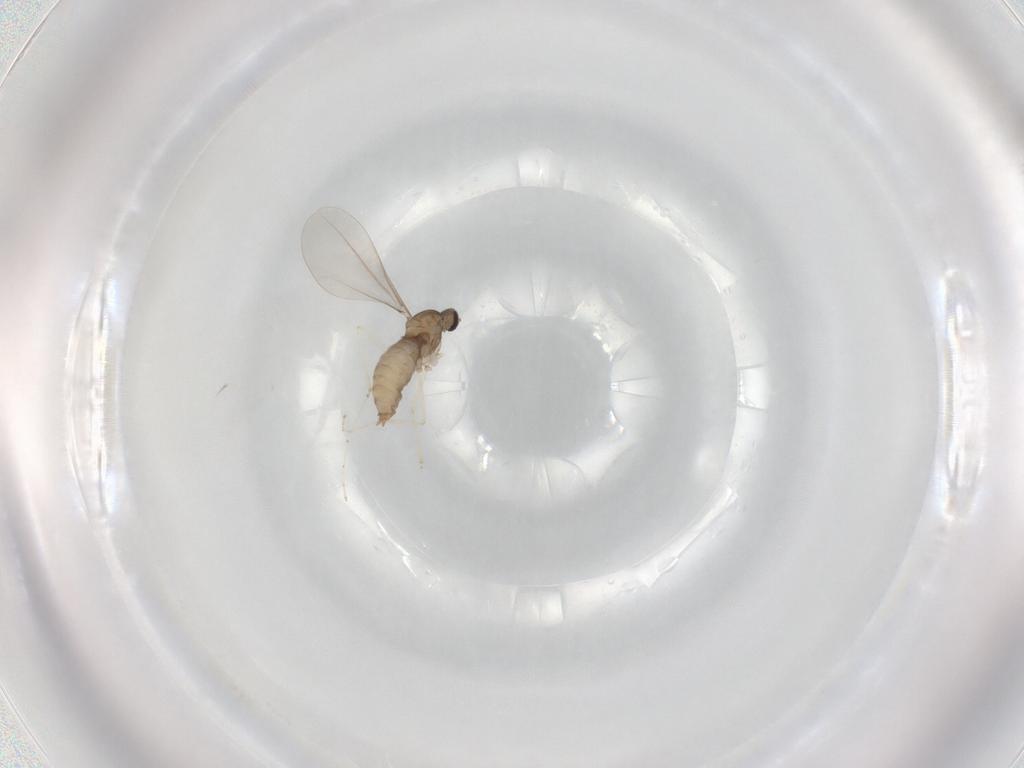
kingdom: Animalia
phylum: Arthropoda
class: Insecta
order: Diptera
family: Cecidomyiidae
